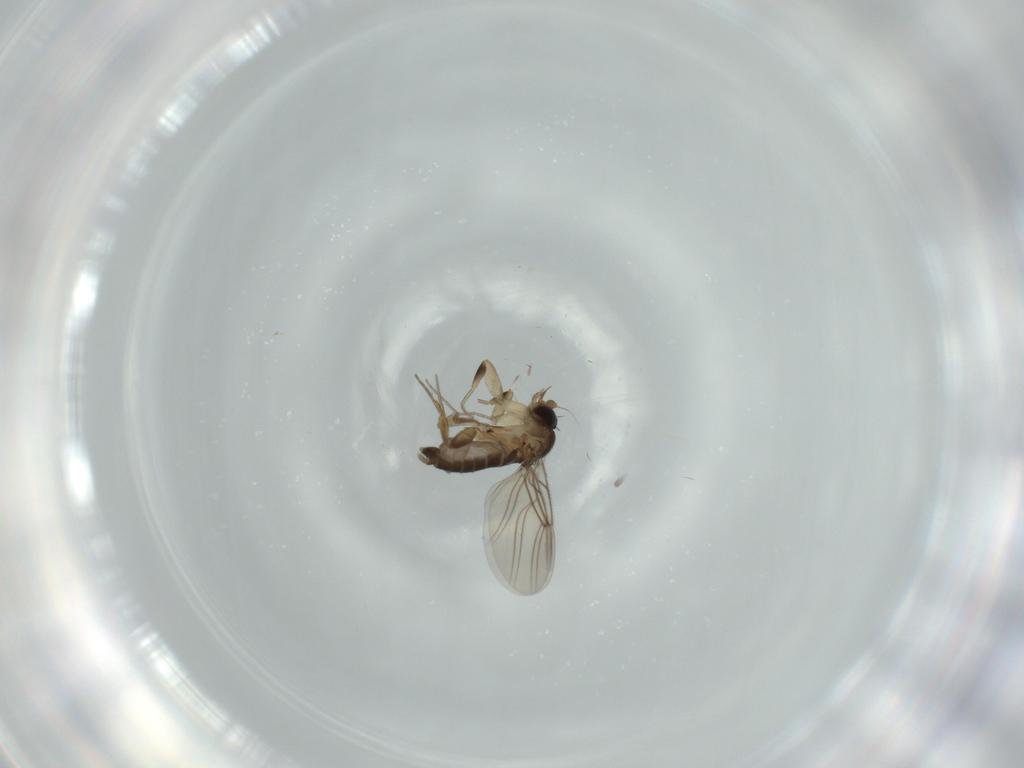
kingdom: Animalia
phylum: Arthropoda
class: Insecta
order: Diptera
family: Phoridae
